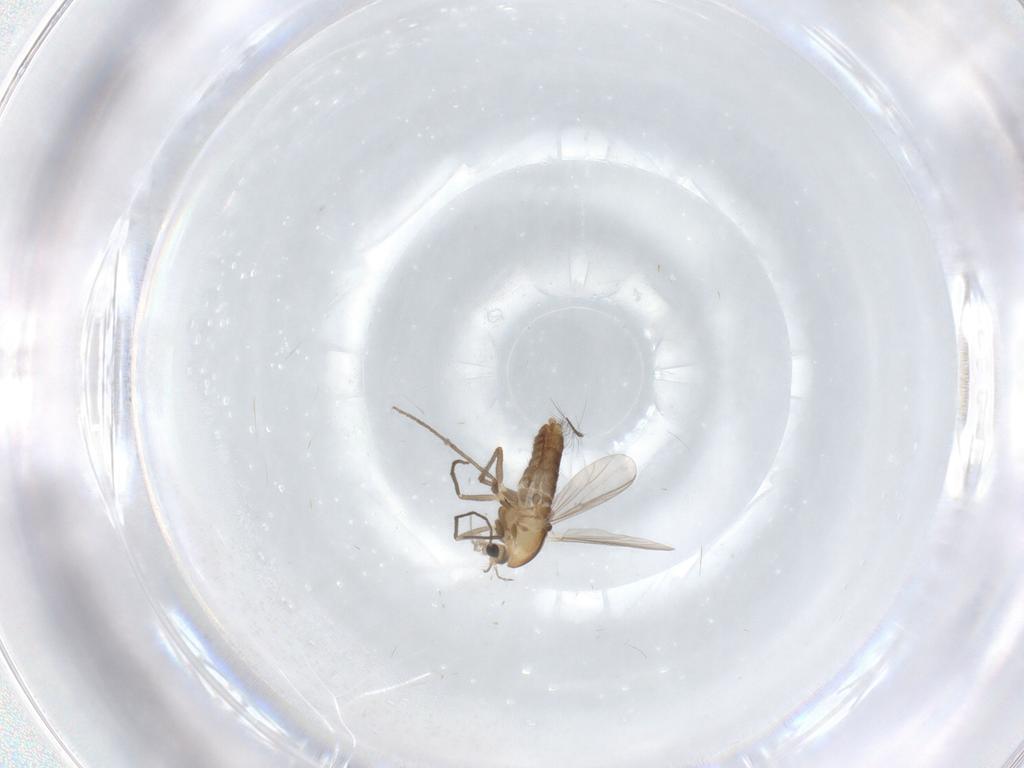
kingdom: Animalia
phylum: Arthropoda
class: Insecta
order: Diptera
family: Chironomidae
